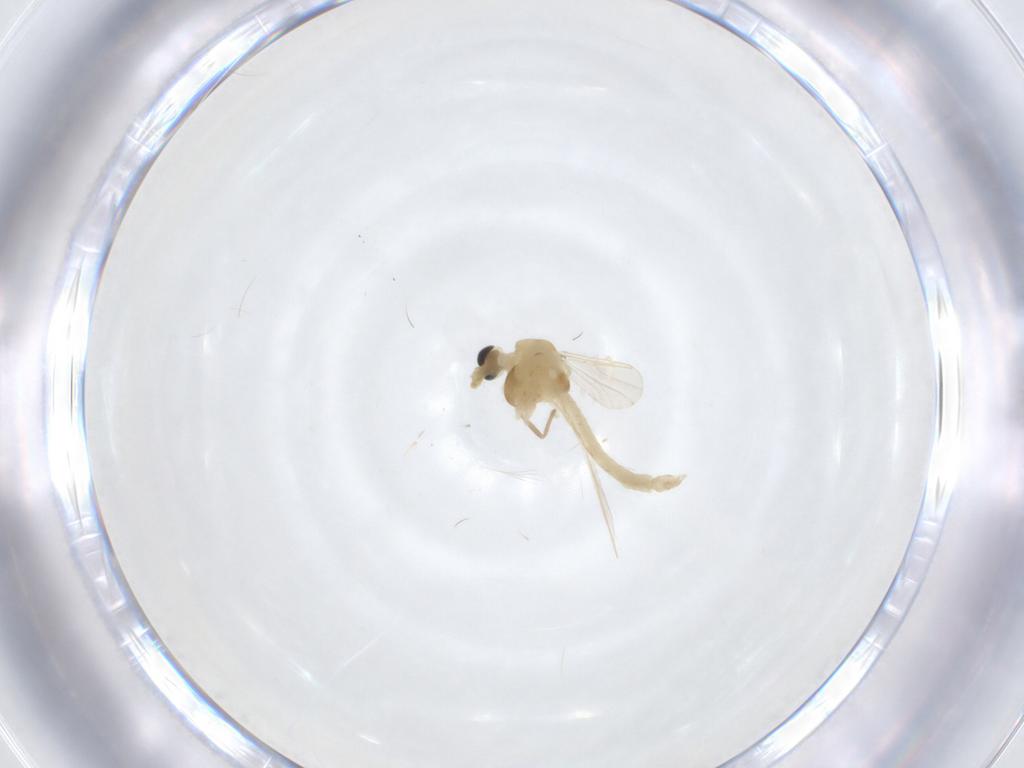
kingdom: Animalia
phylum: Arthropoda
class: Insecta
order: Diptera
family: Chironomidae
